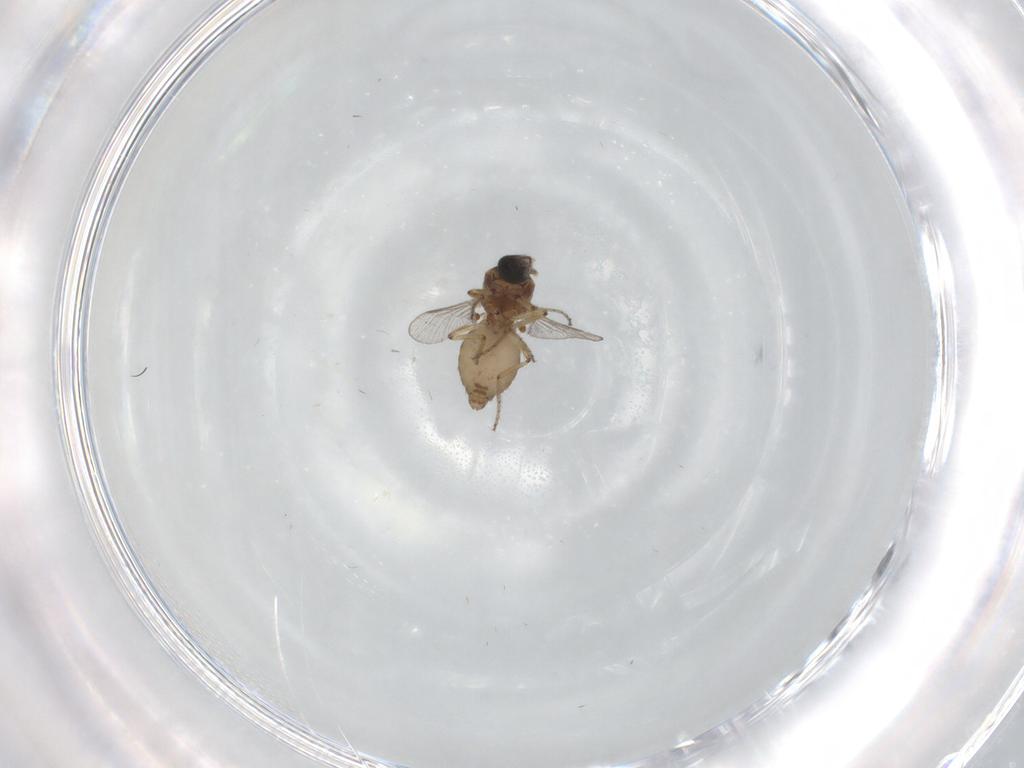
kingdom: Animalia
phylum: Arthropoda
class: Insecta
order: Diptera
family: Ceratopogonidae
